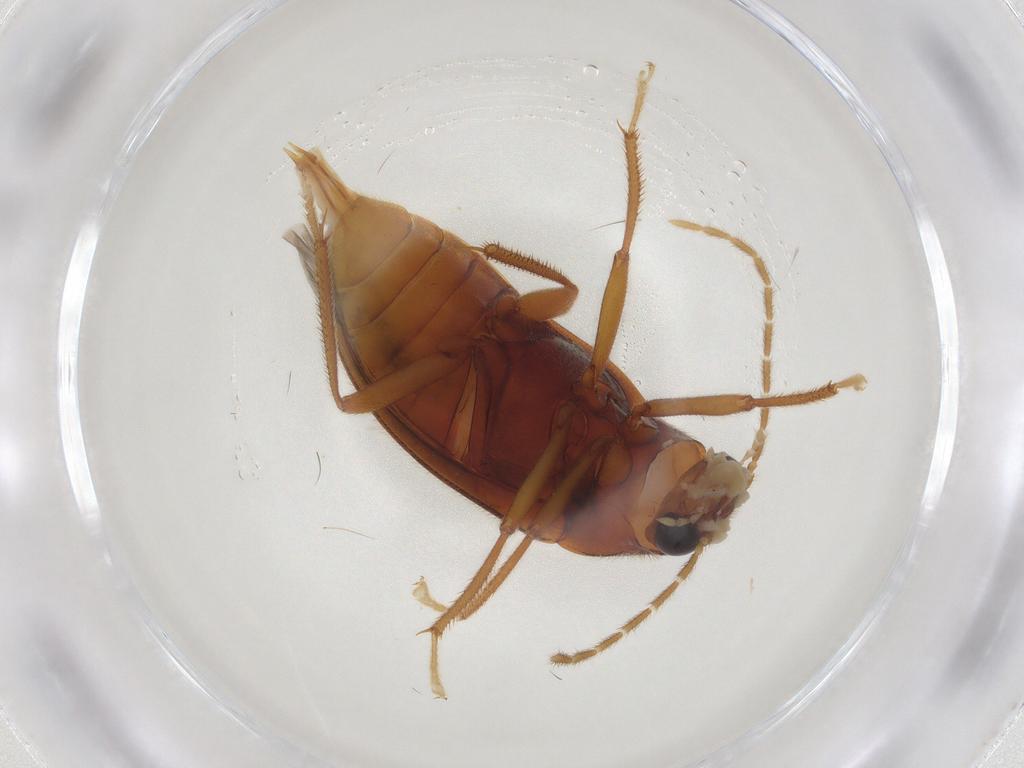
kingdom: Animalia
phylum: Arthropoda
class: Insecta
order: Coleoptera
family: Ptilodactylidae
